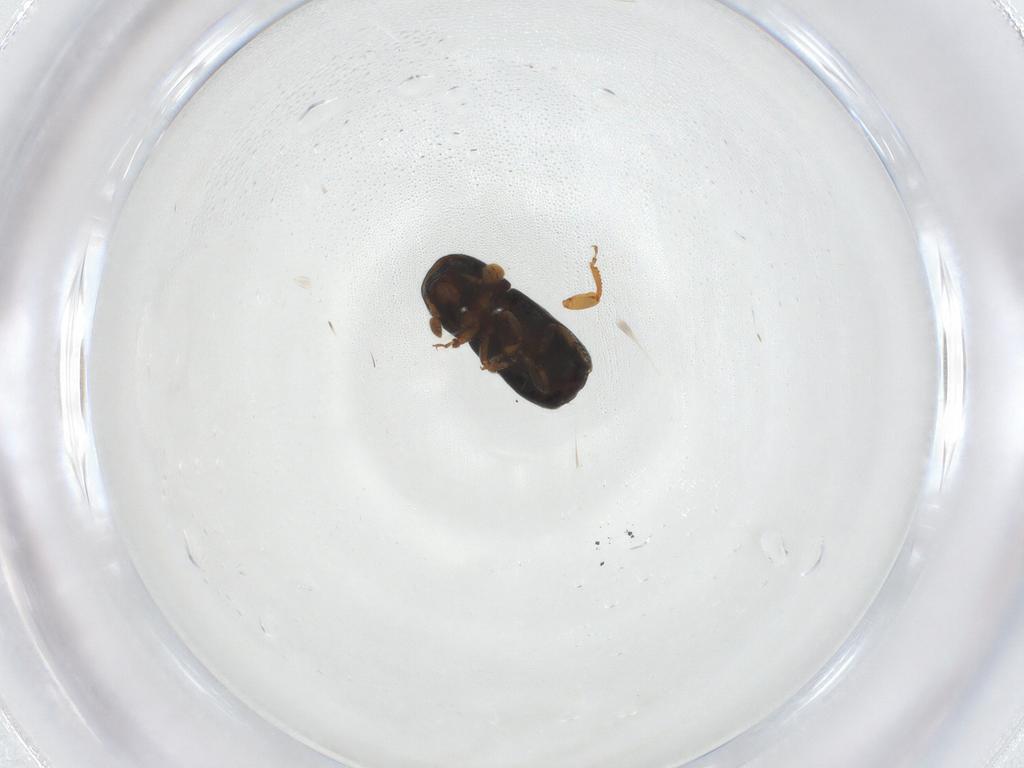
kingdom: Animalia
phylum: Arthropoda
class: Insecta
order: Coleoptera
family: Curculionidae
